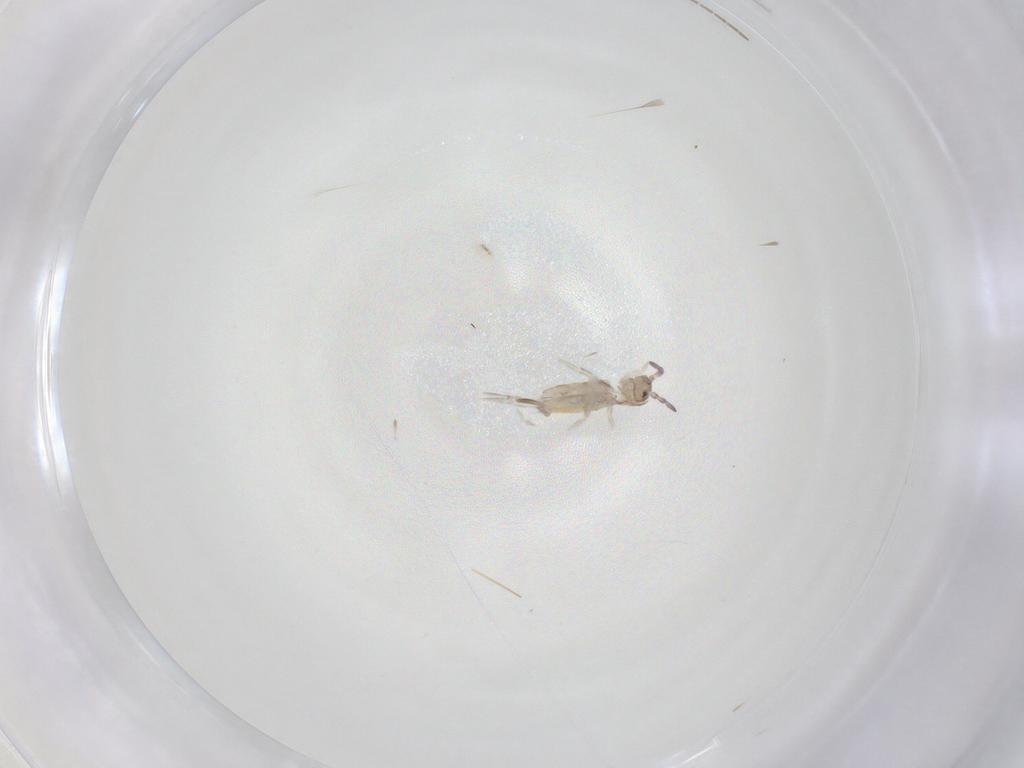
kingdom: Animalia
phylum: Arthropoda
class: Collembola
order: Entomobryomorpha
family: Entomobryidae
